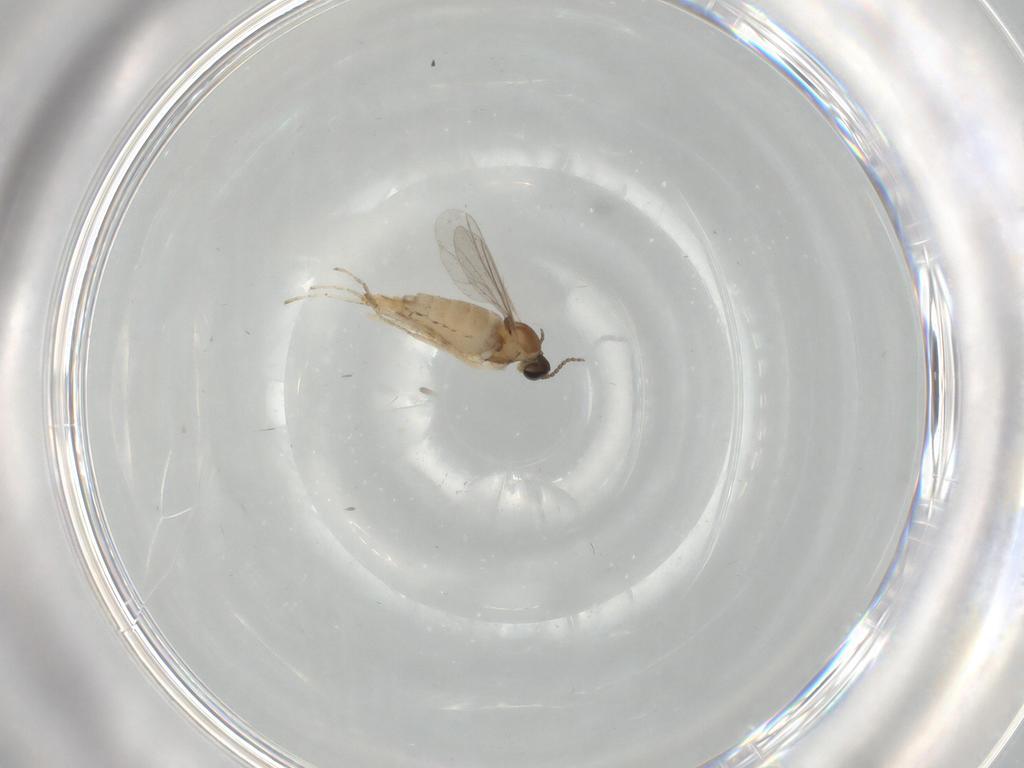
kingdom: Animalia
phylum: Arthropoda
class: Insecta
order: Diptera
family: Cecidomyiidae
